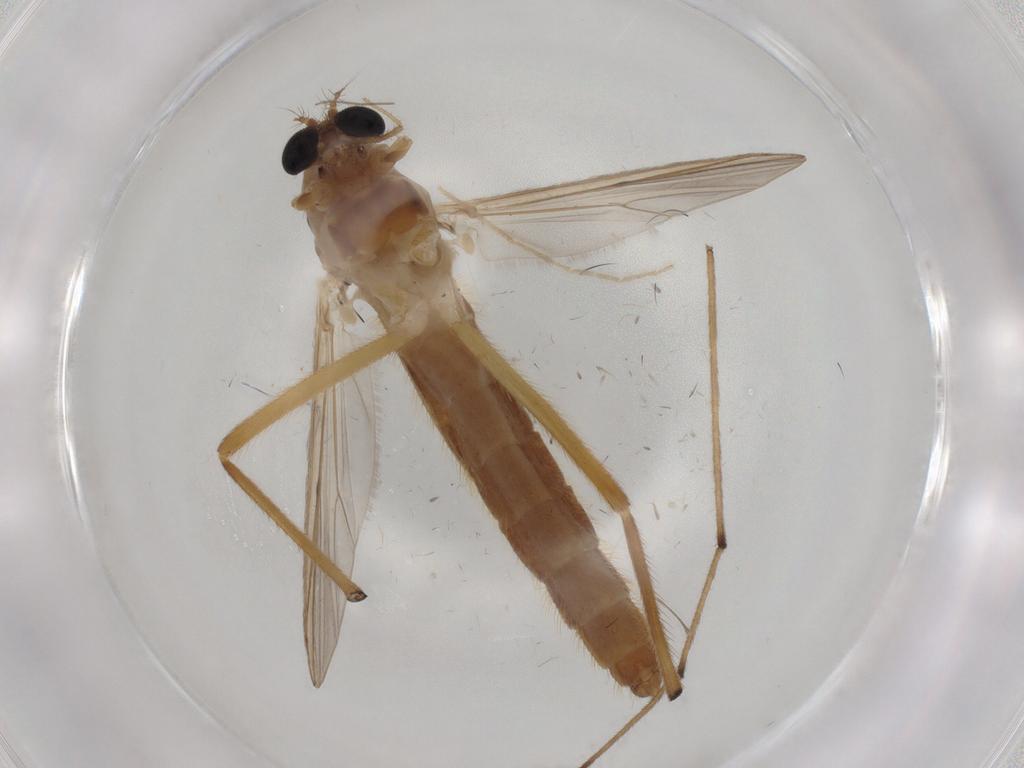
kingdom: Animalia
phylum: Arthropoda
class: Insecta
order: Diptera
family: Chironomidae
